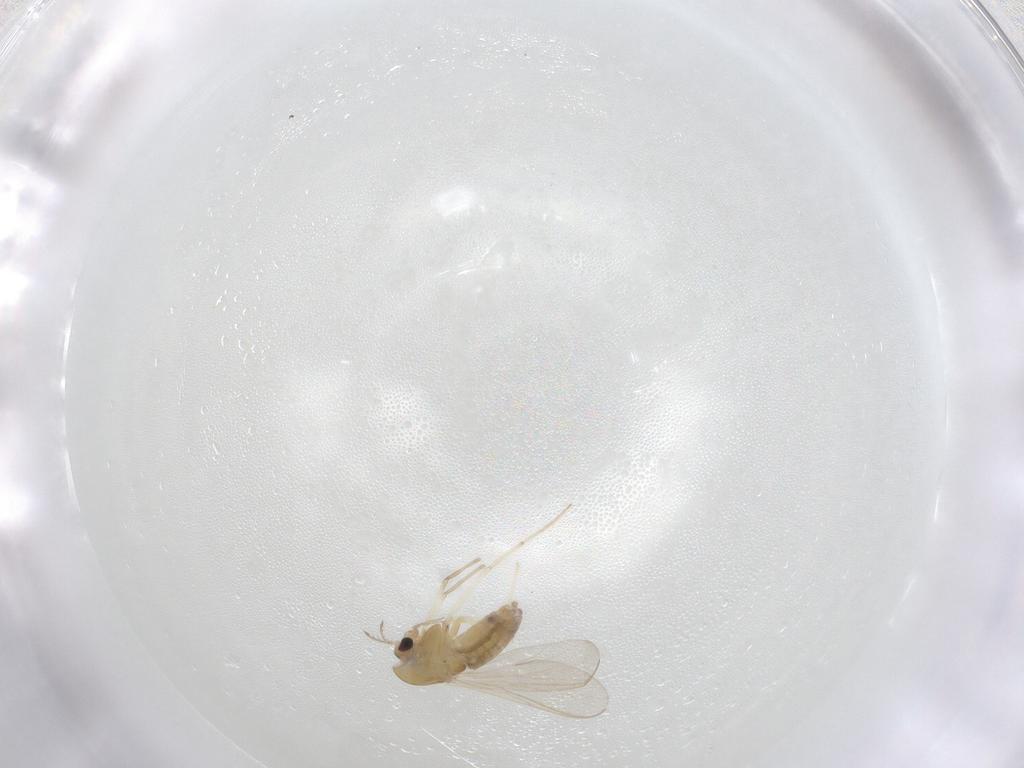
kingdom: Animalia
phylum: Arthropoda
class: Insecta
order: Diptera
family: Chironomidae
